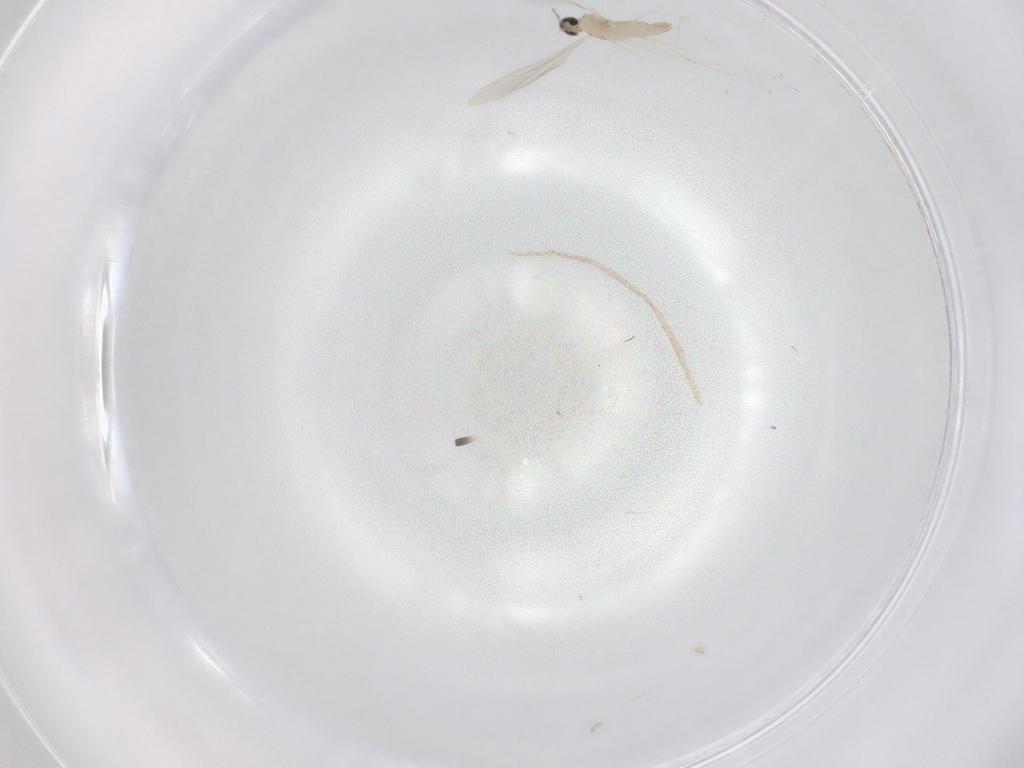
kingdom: Animalia
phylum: Arthropoda
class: Insecta
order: Diptera
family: Cecidomyiidae
